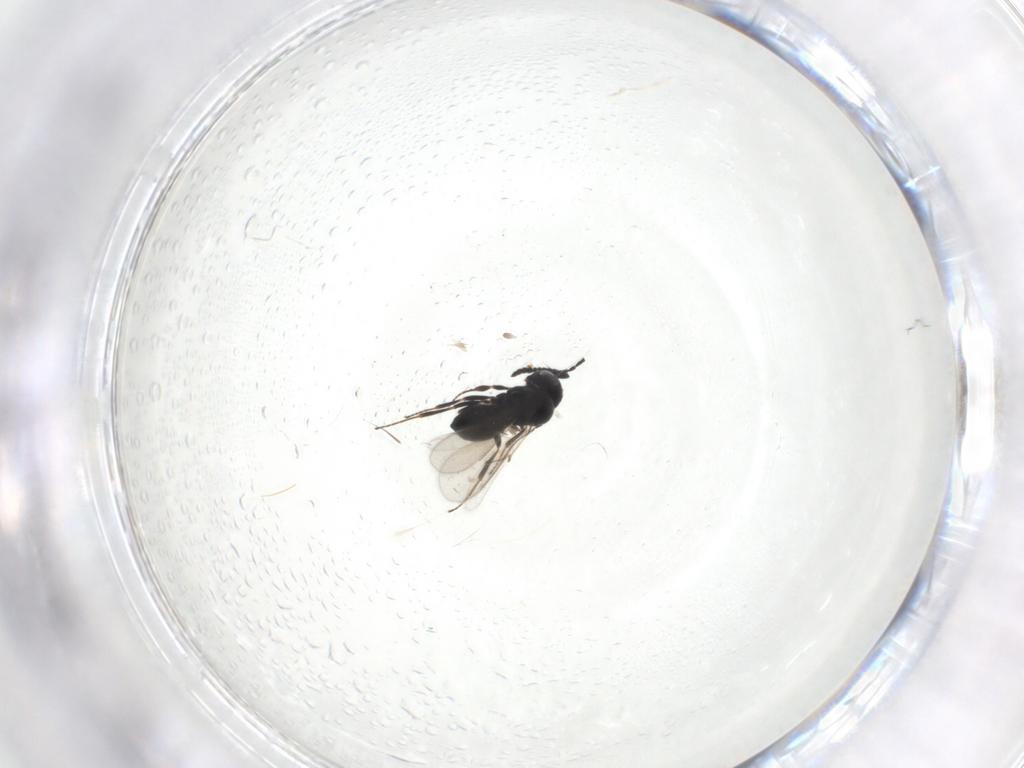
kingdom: Animalia
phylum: Arthropoda
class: Insecta
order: Hymenoptera
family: Scelionidae
